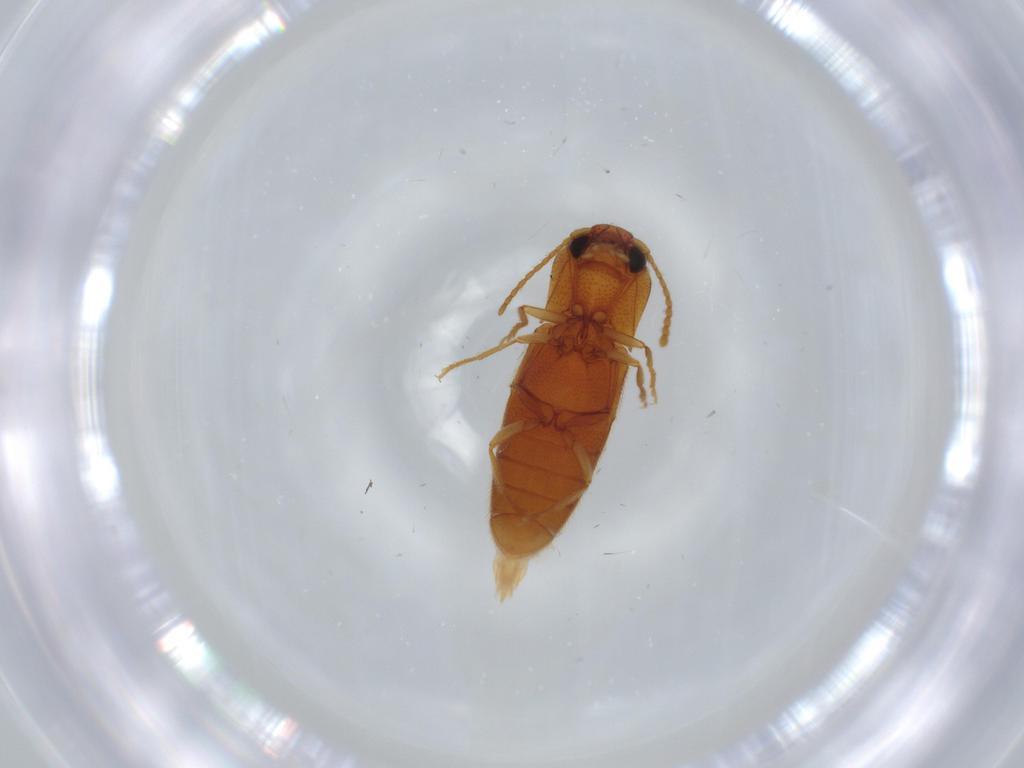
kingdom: Animalia
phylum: Arthropoda
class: Insecta
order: Coleoptera
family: Elateridae
